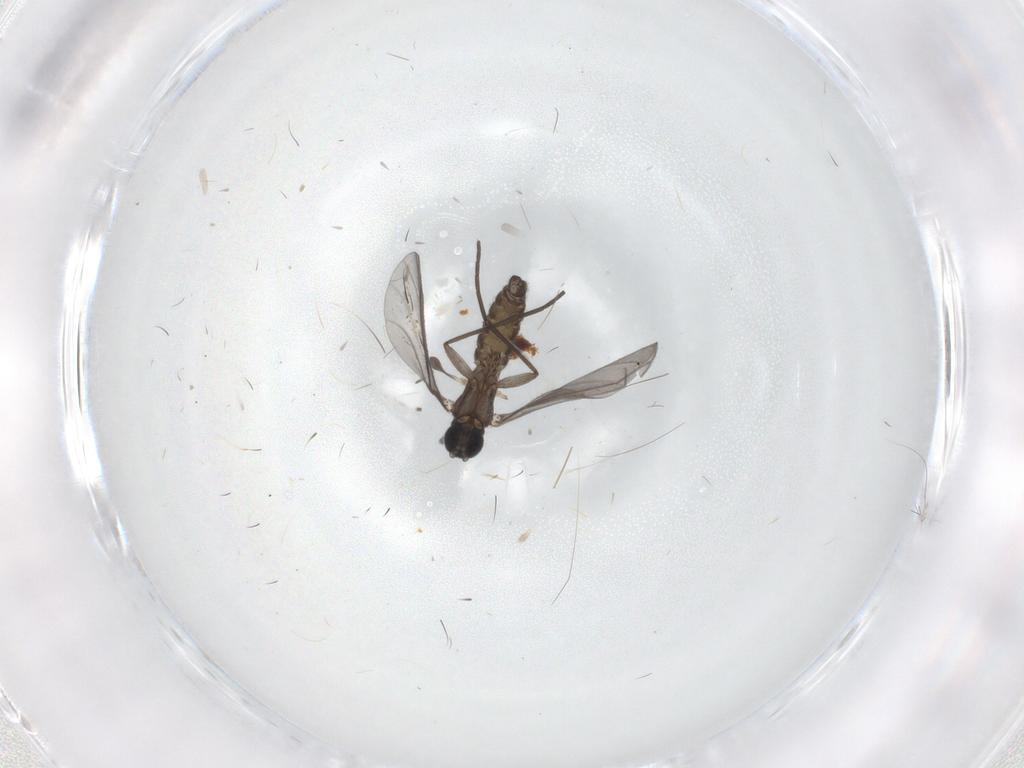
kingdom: Animalia
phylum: Arthropoda
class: Insecta
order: Diptera
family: Sciaridae
